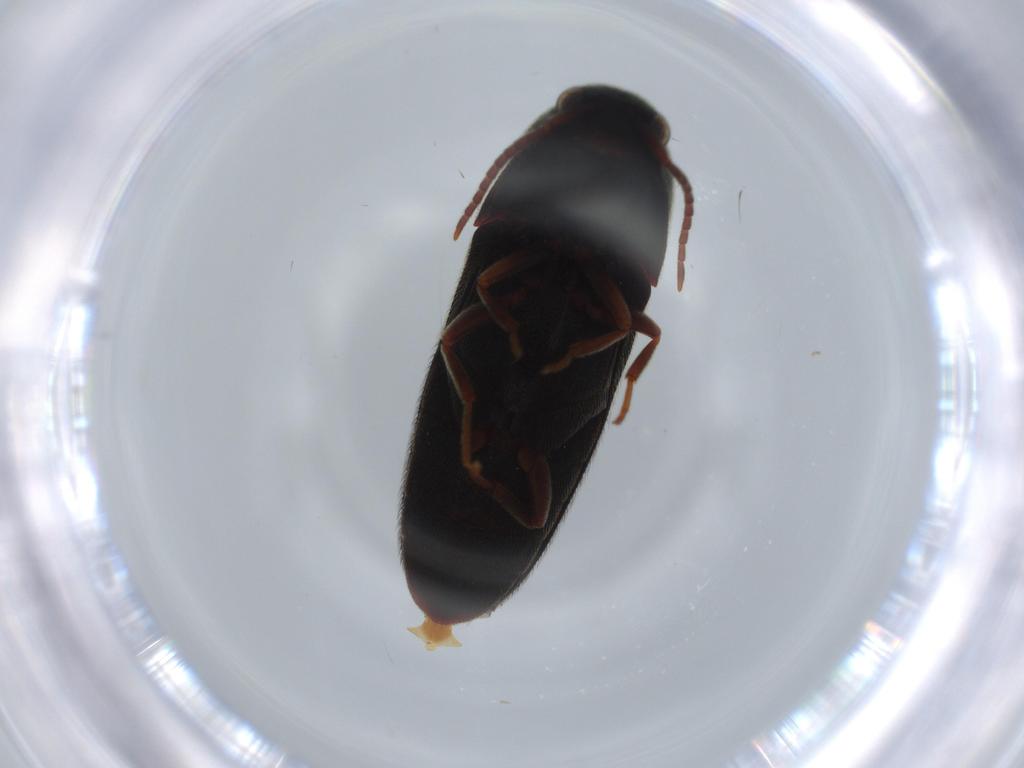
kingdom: Animalia
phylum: Arthropoda
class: Insecta
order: Coleoptera
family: Eucnemidae
